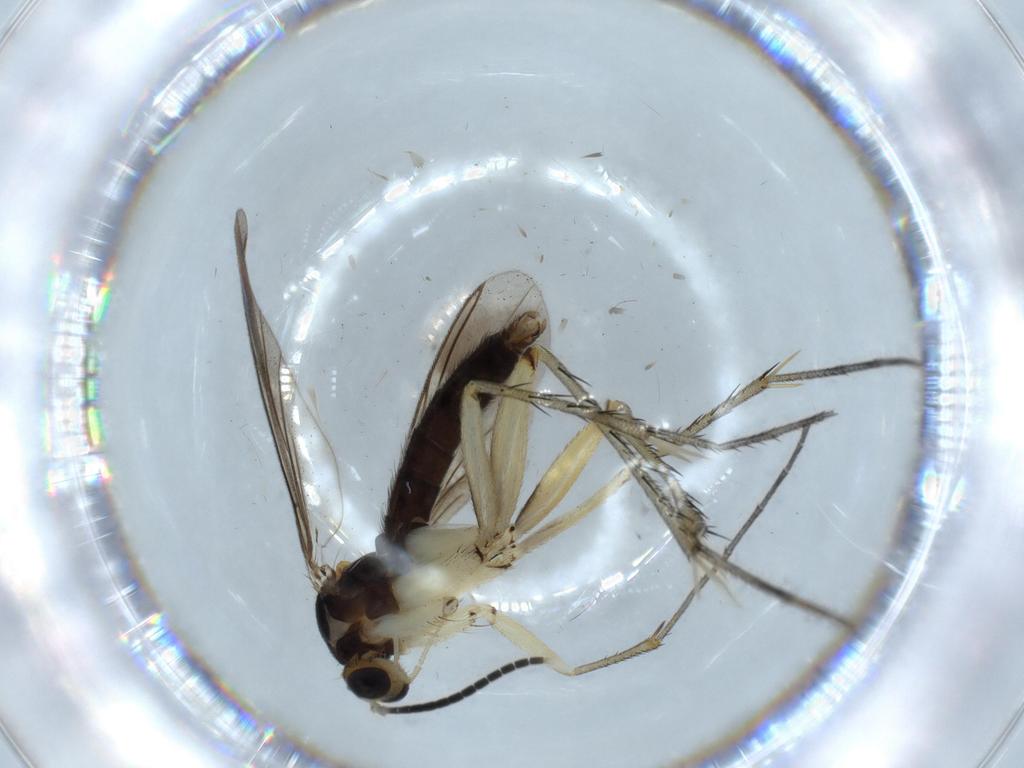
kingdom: Animalia
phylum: Arthropoda
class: Insecta
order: Diptera
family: Psychodidae
